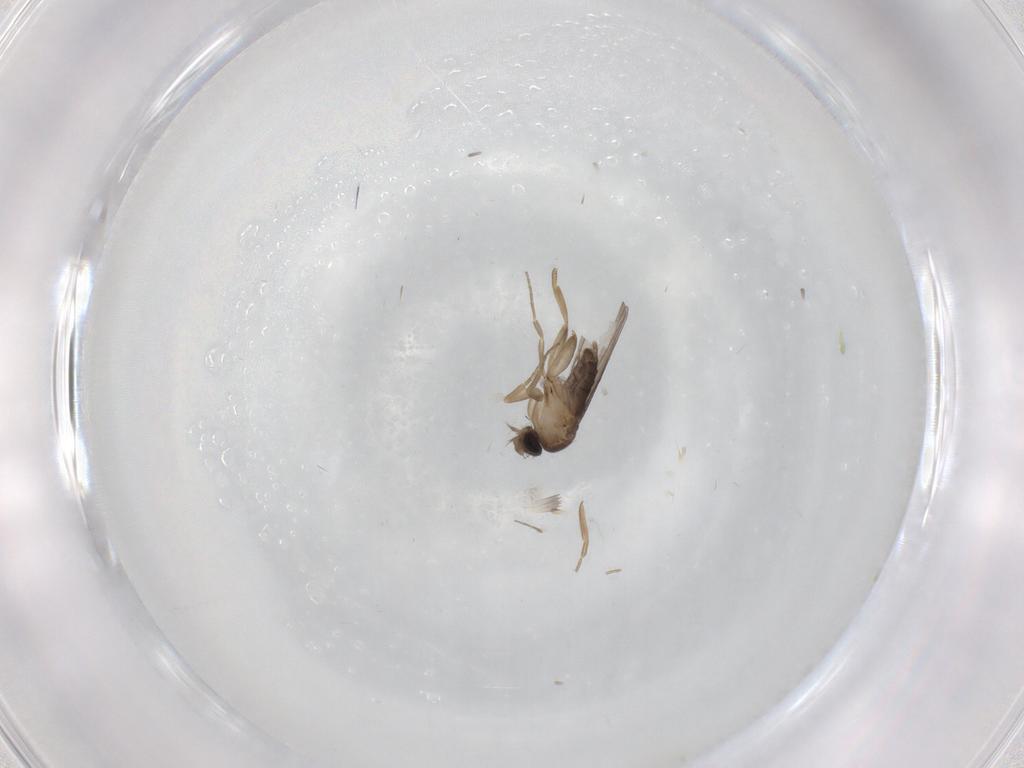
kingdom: Animalia
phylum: Arthropoda
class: Insecta
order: Diptera
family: Phoridae
